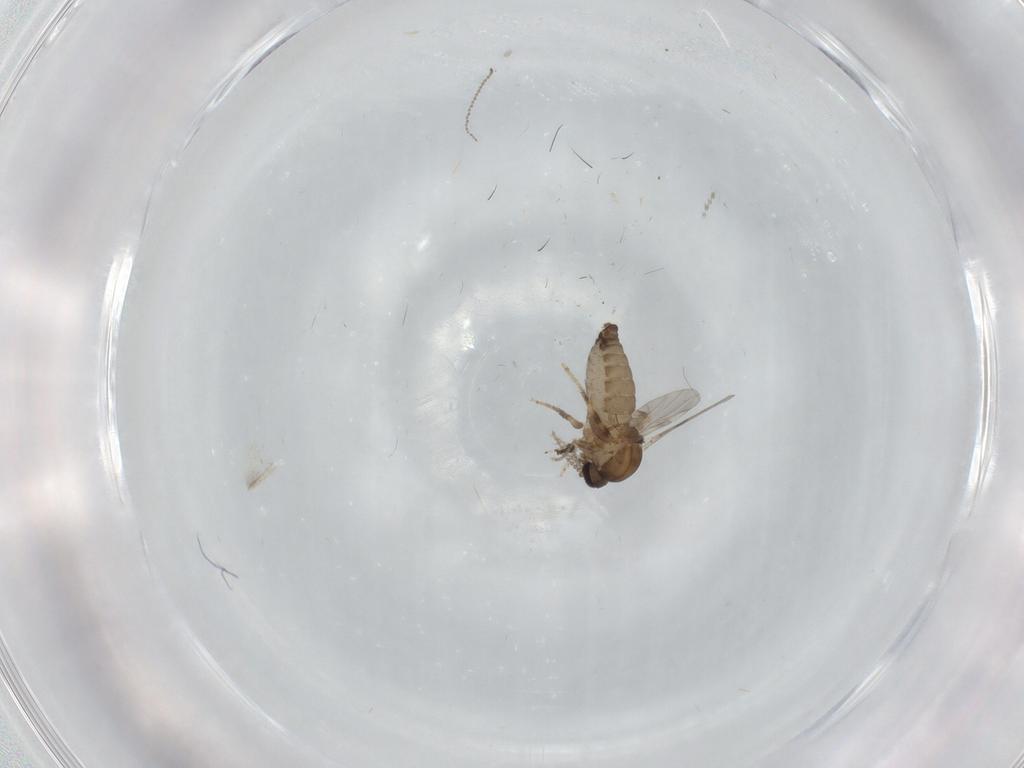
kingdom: Animalia
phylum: Arthropoda
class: Insecta
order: Diptera
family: Ceratopogonidae
